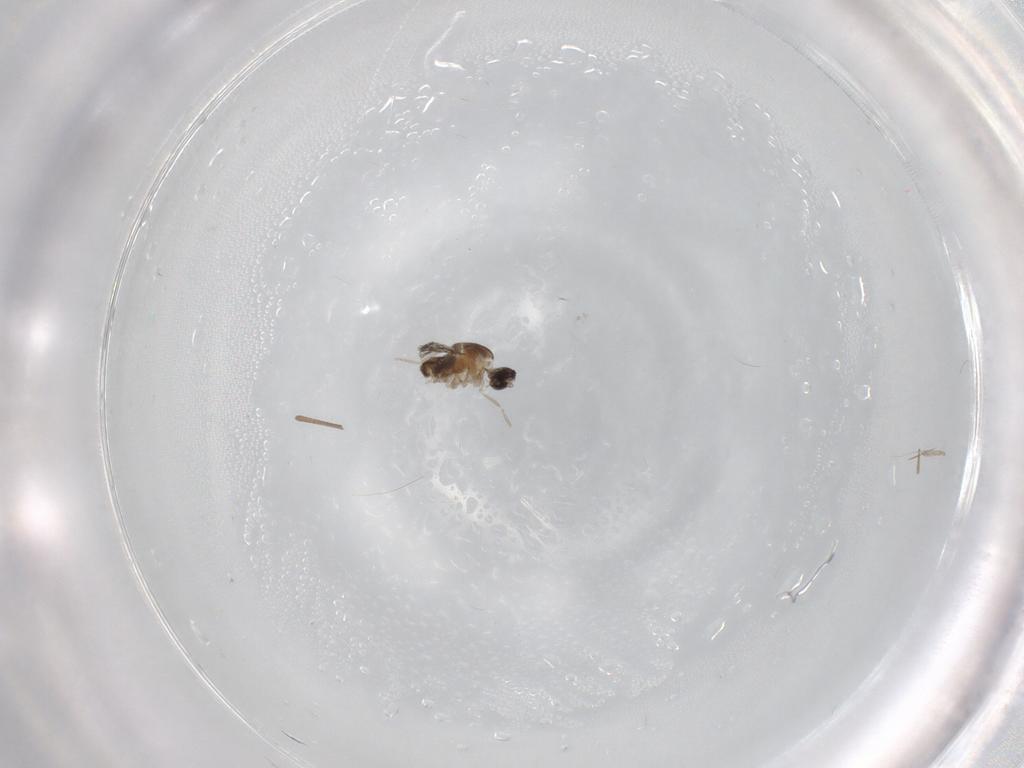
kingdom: Animalia
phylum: Arthropoda
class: Insecta
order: Diptera
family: Limoniidae
